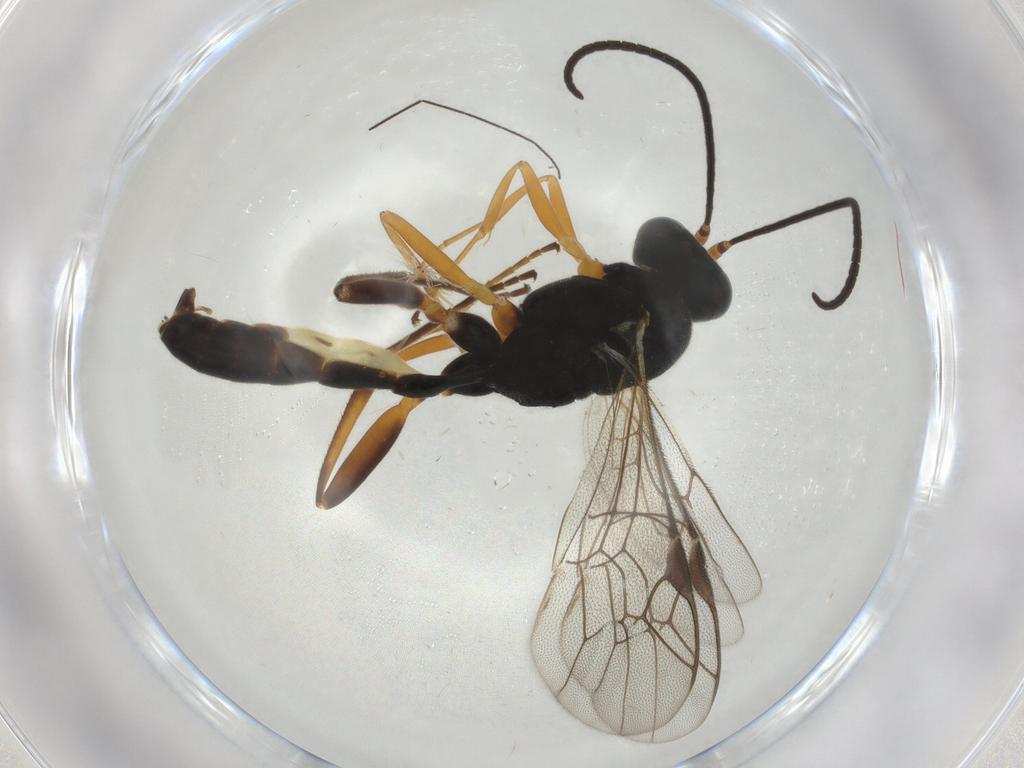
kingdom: Animalia
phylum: Arthropoda
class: Insecta
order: Hymenoptera
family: Ichneumonidae
